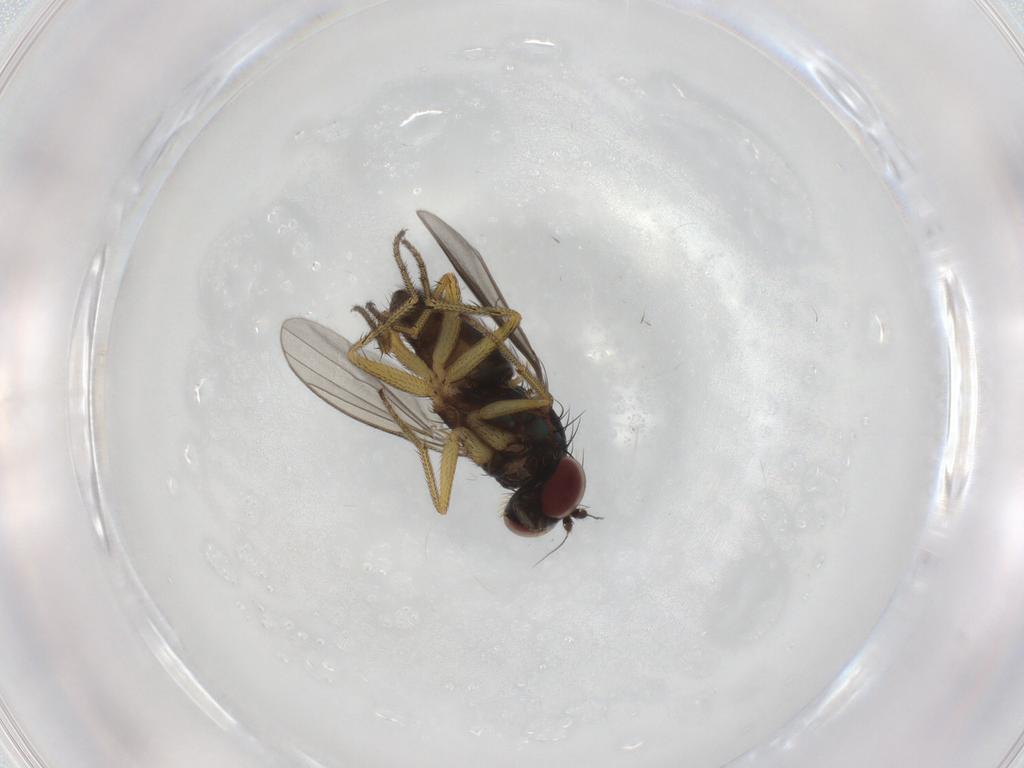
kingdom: Animalia
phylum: Arthropoda
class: Insecta
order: Diptera
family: Dolichopodidae
